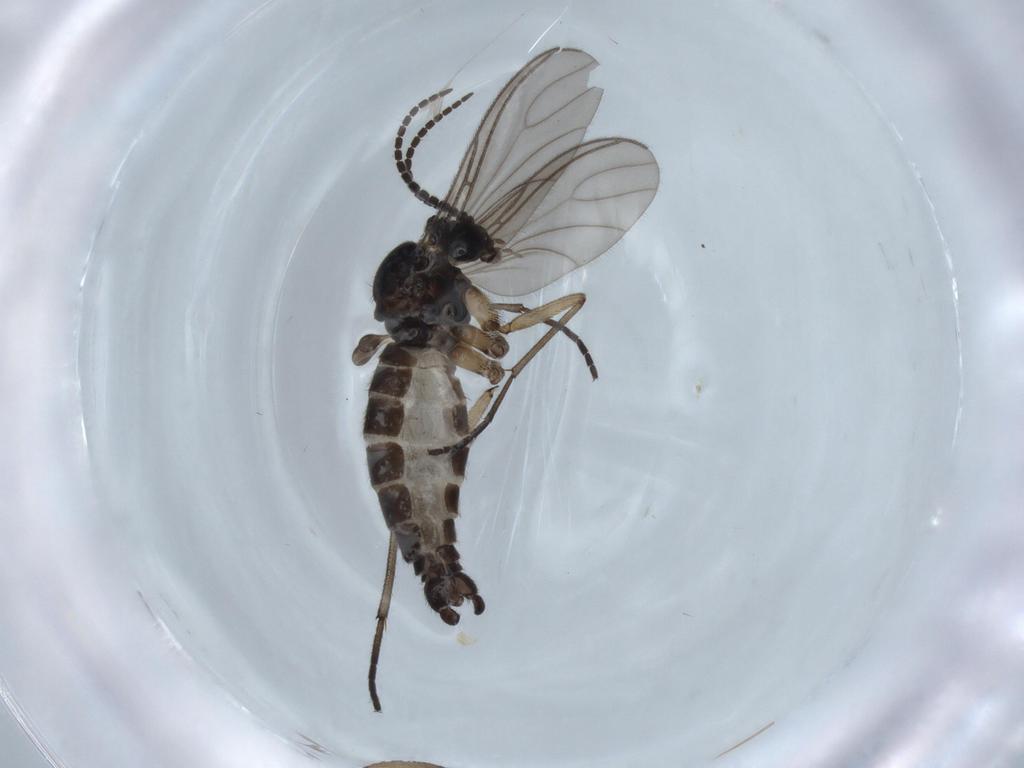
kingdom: Animalia
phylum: Arthropoda
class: Insecta
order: Diptera
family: Sciaridae
